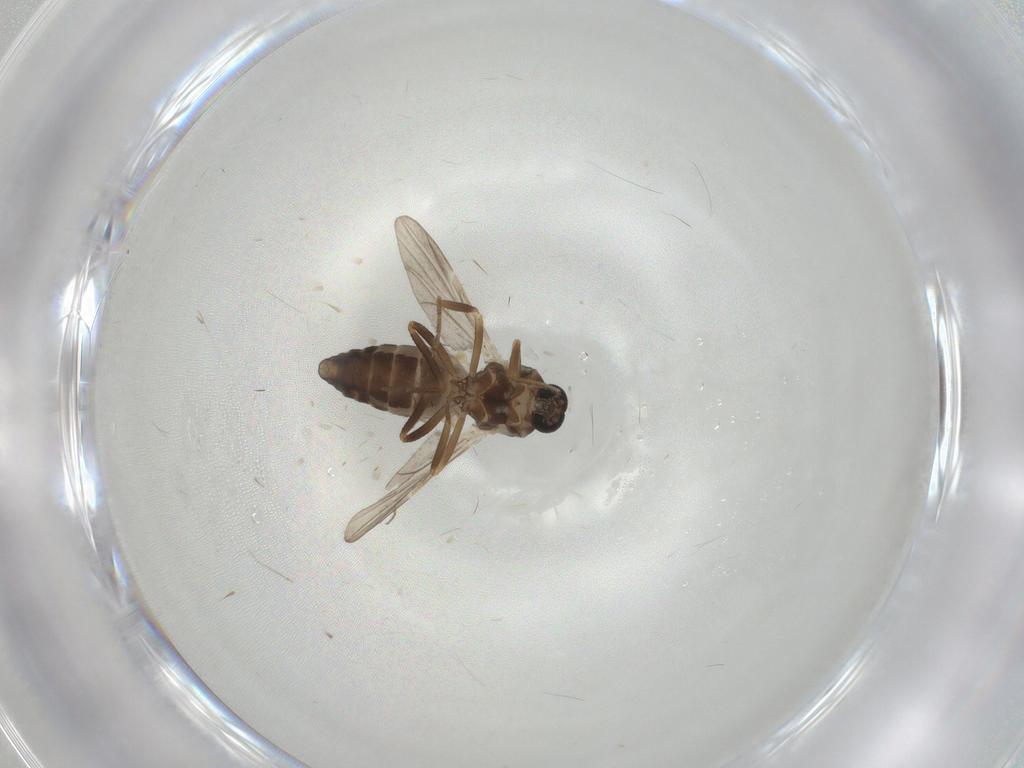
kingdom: Animalia
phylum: Arthropoda
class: Insecta
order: Diptera
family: Ceratopogonidae
